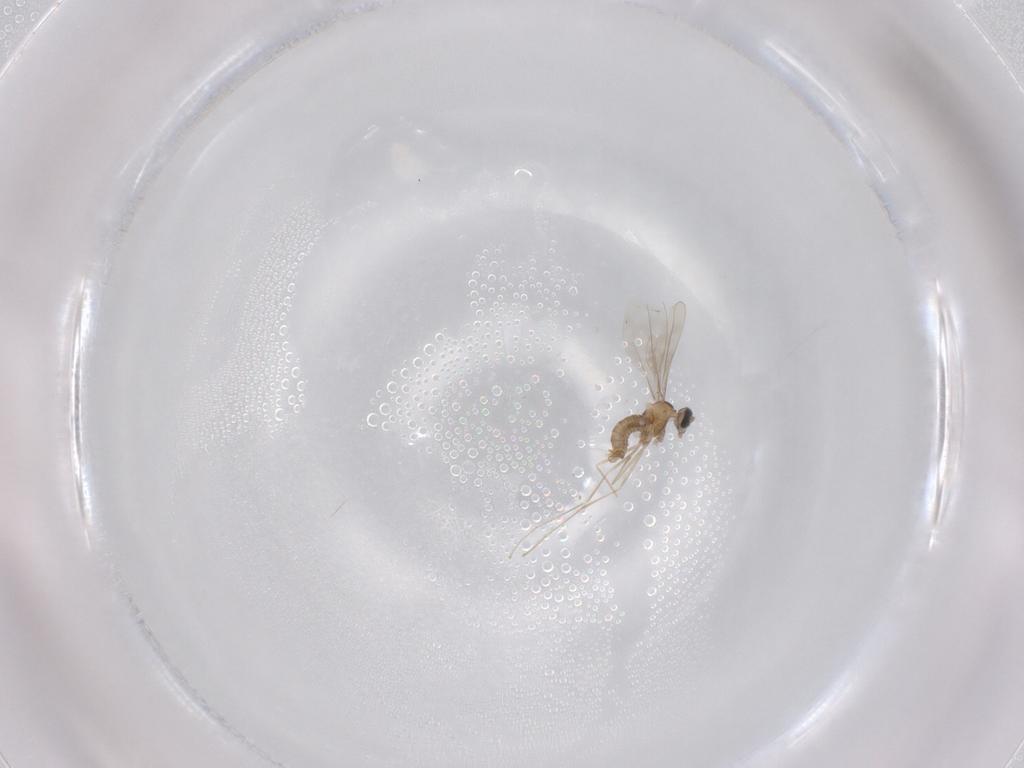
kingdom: Animalia
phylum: Arthropoda
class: Insecta
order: Diptera
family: Cecidomyiidae
